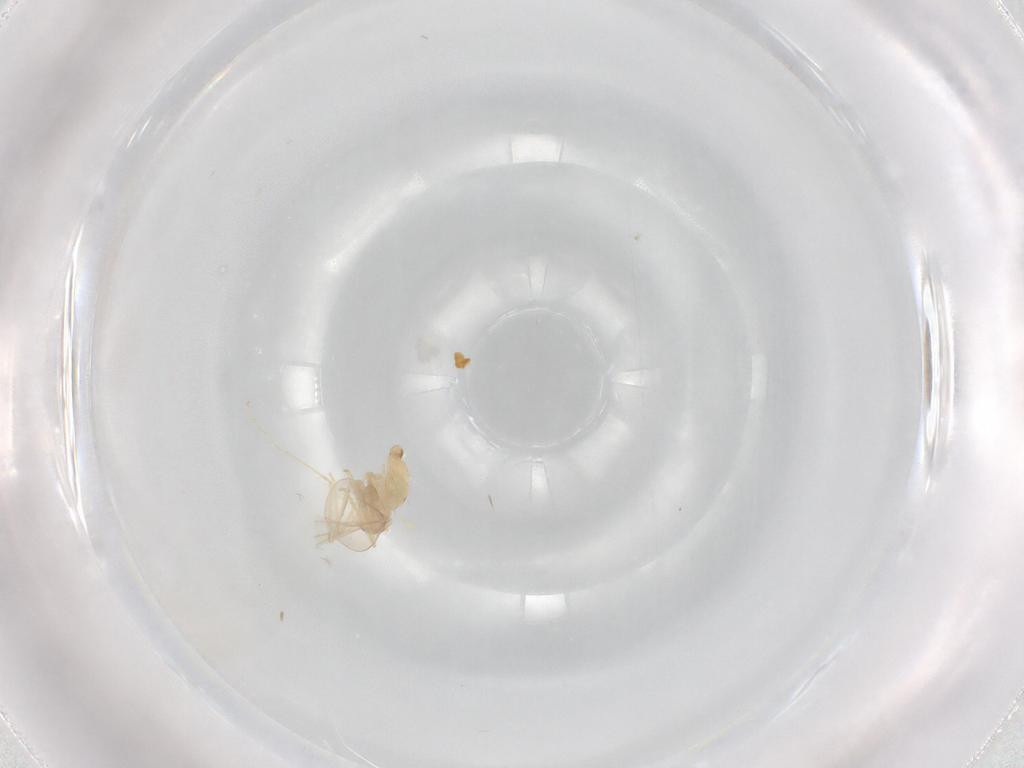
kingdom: Animalia
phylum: Arthropoda
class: Insecta
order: Diptera
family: Cecidomyiidae
